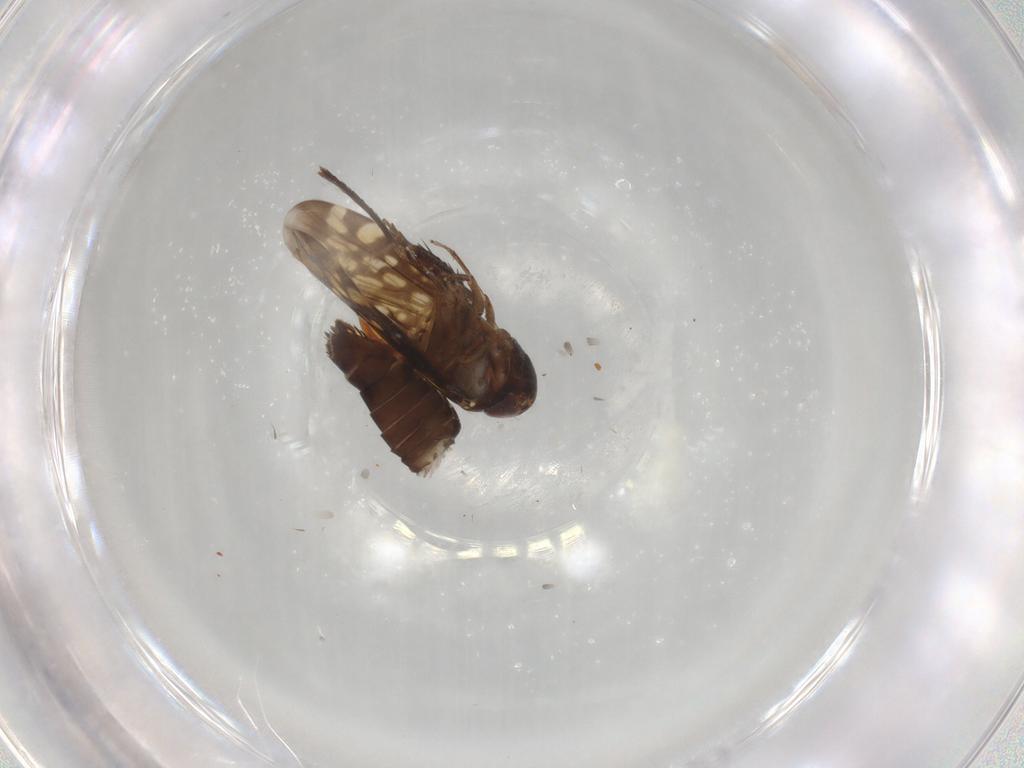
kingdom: Animalia
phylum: Arthropoda
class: Insecta
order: Hemiptera
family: Cicadellidae
